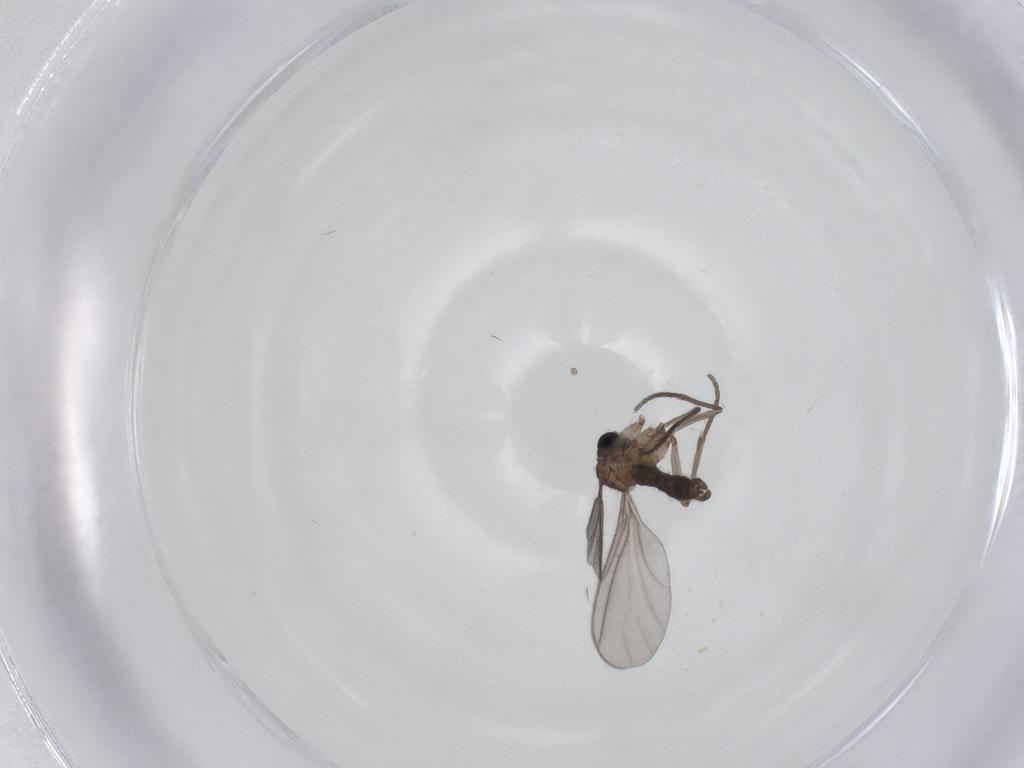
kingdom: Animalia
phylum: Arthropoda
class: Insecta
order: Diptera
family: Sciaridae
